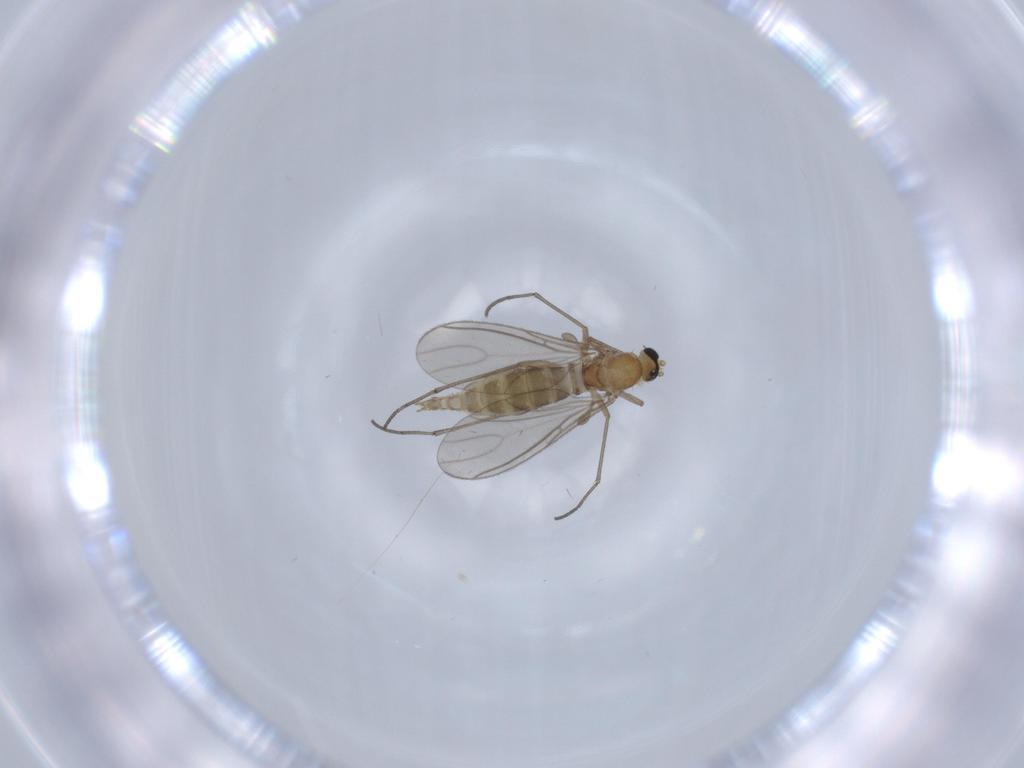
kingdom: Animalia
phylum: Arthropoda
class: Insecta
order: Diptera
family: Sciaridae
